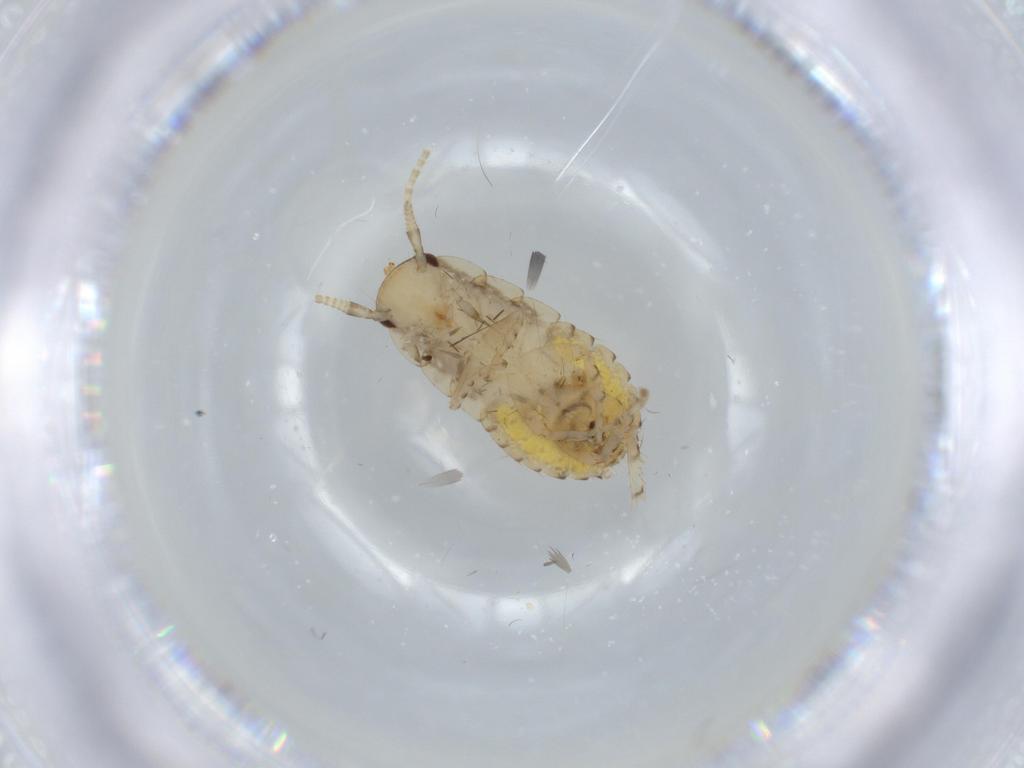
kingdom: Animalia
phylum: Arthropoda
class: Insecta
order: Blattodea
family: Ectobiidae
